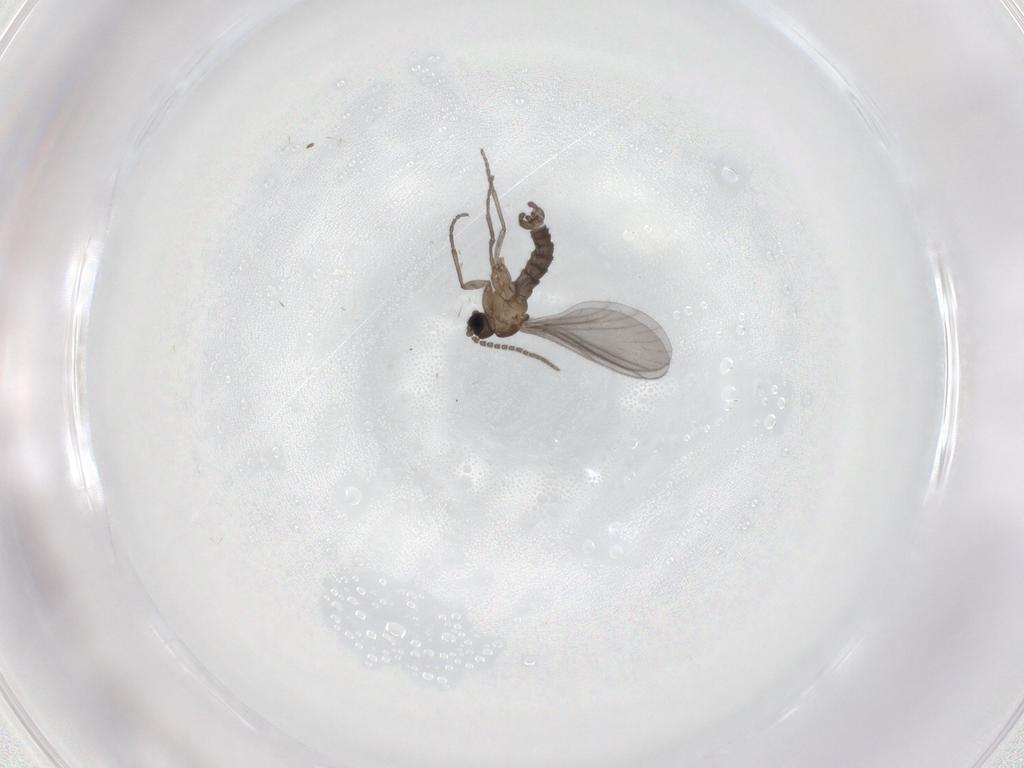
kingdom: Animalia
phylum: Arthropoda
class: Insecta
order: Diptera
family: Sciaridae
